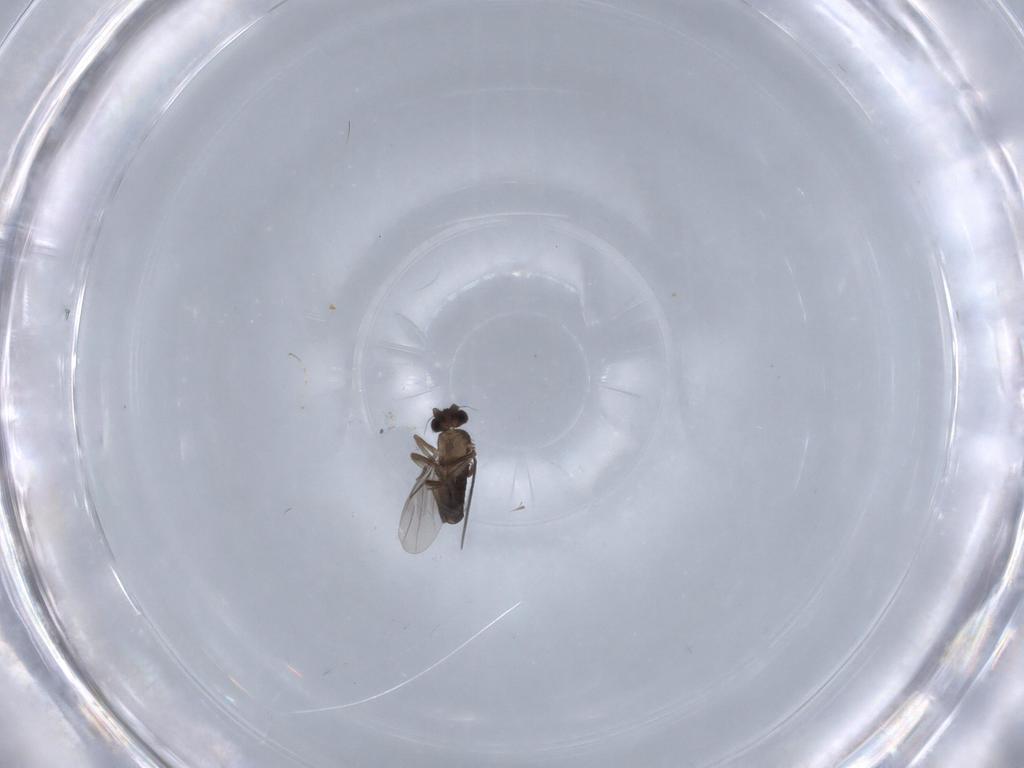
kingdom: Animalia
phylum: Arthropoda
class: Insecta
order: Diptera
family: Chironomidae
